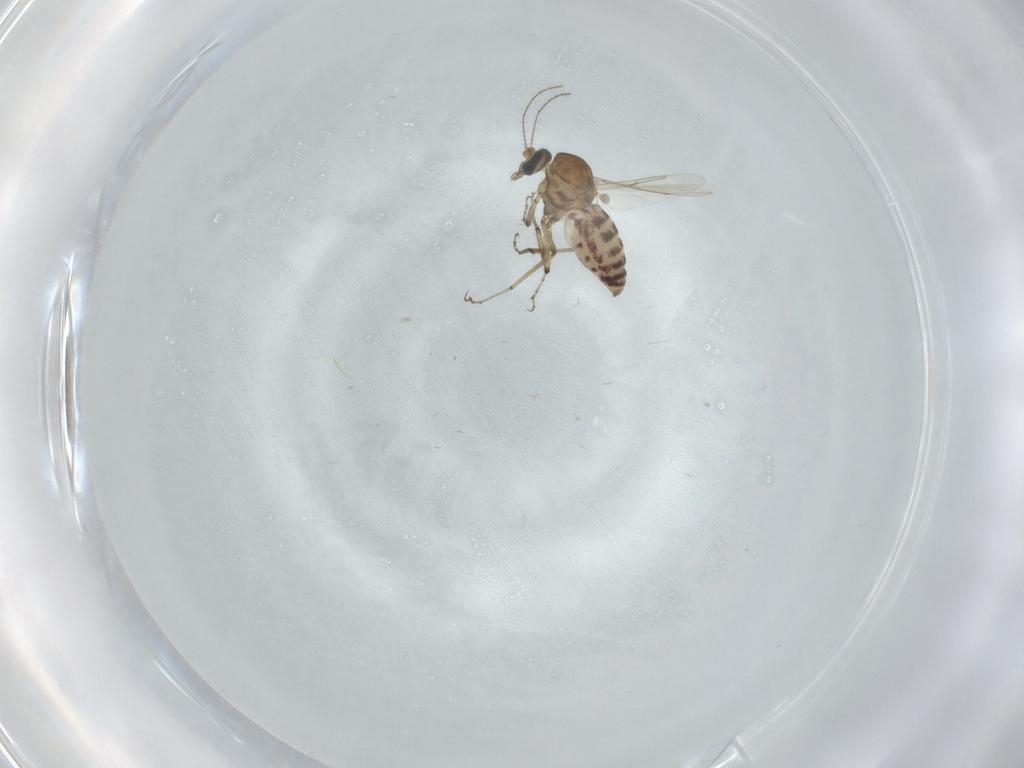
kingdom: Animalia
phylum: Arthropoda
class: Insecta
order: Diptera
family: Ceratopogonidae
